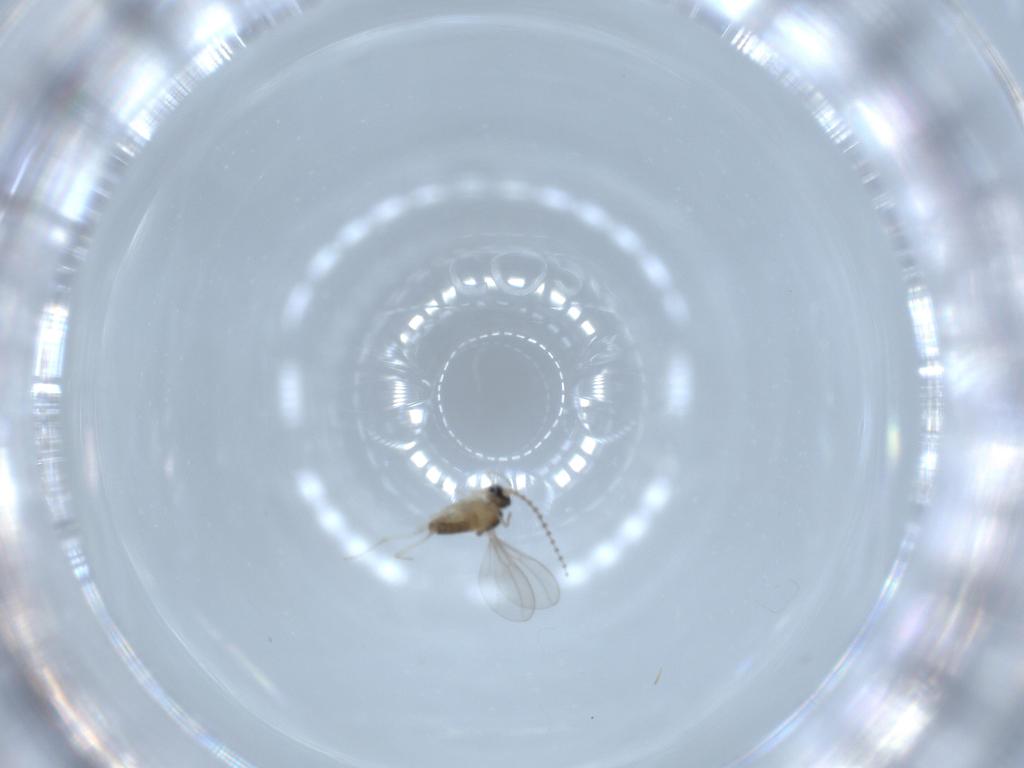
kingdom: Animalia
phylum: Arthropoda
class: Insecta
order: Diptera
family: Cecidomyiidae
